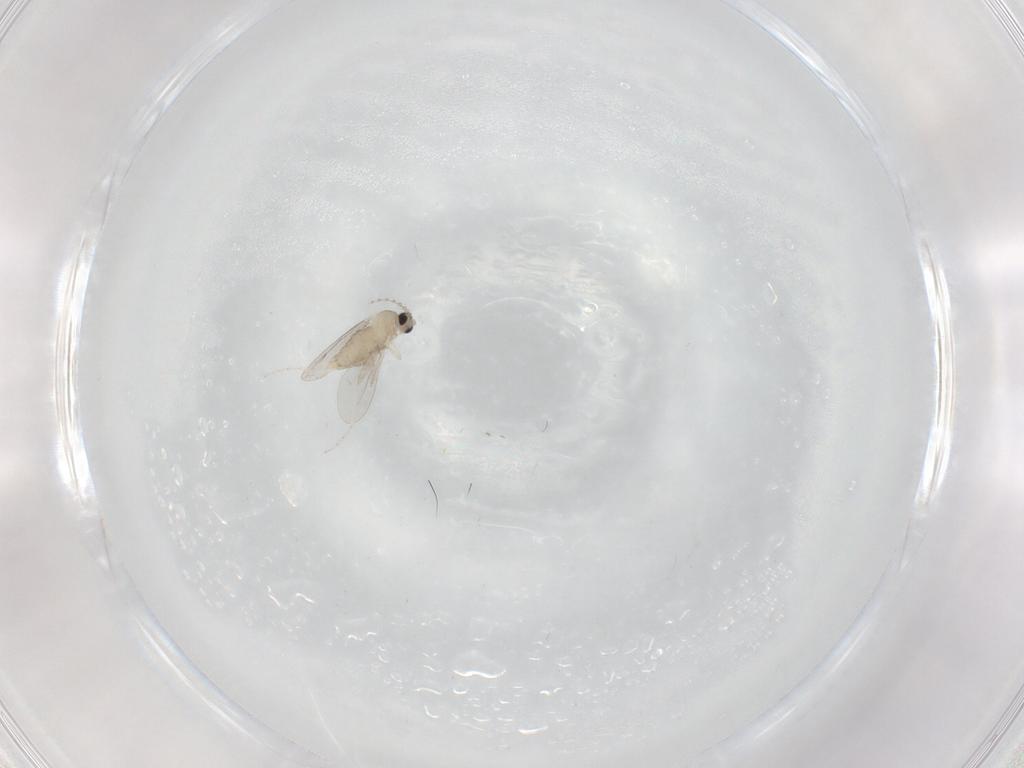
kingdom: Animalia
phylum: Arthropoda
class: Insecta
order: Diptera
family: Cecidomyiidae
